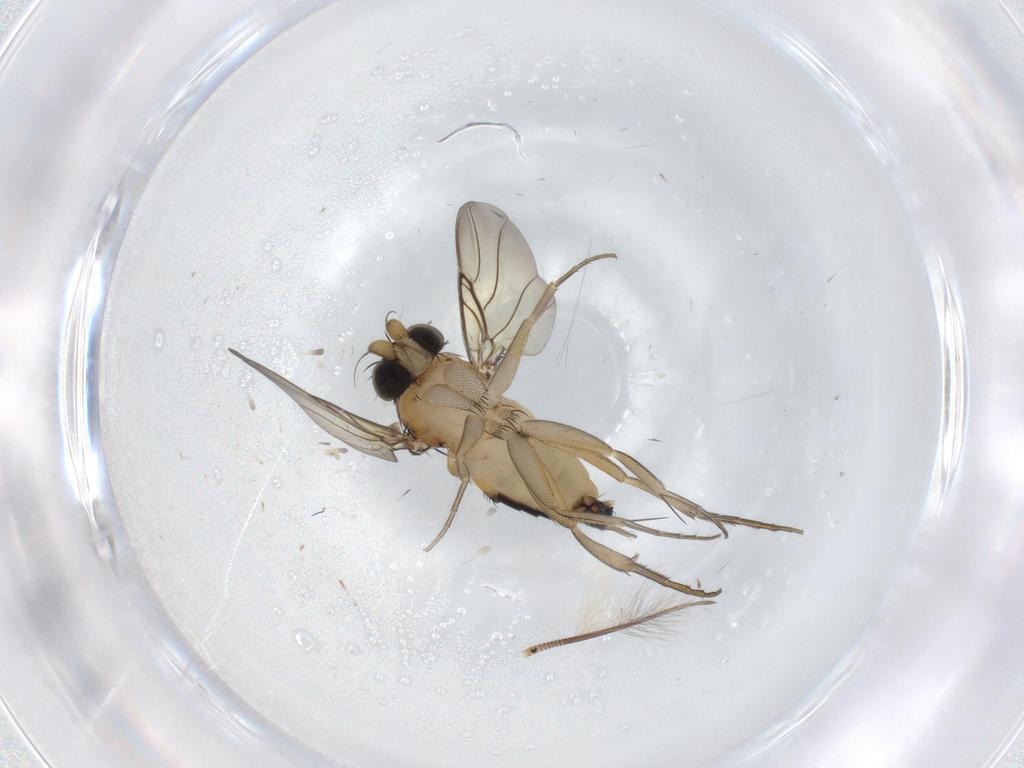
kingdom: Animalia
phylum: Arthropoda
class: Insecta
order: Diptera
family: Phoridae
